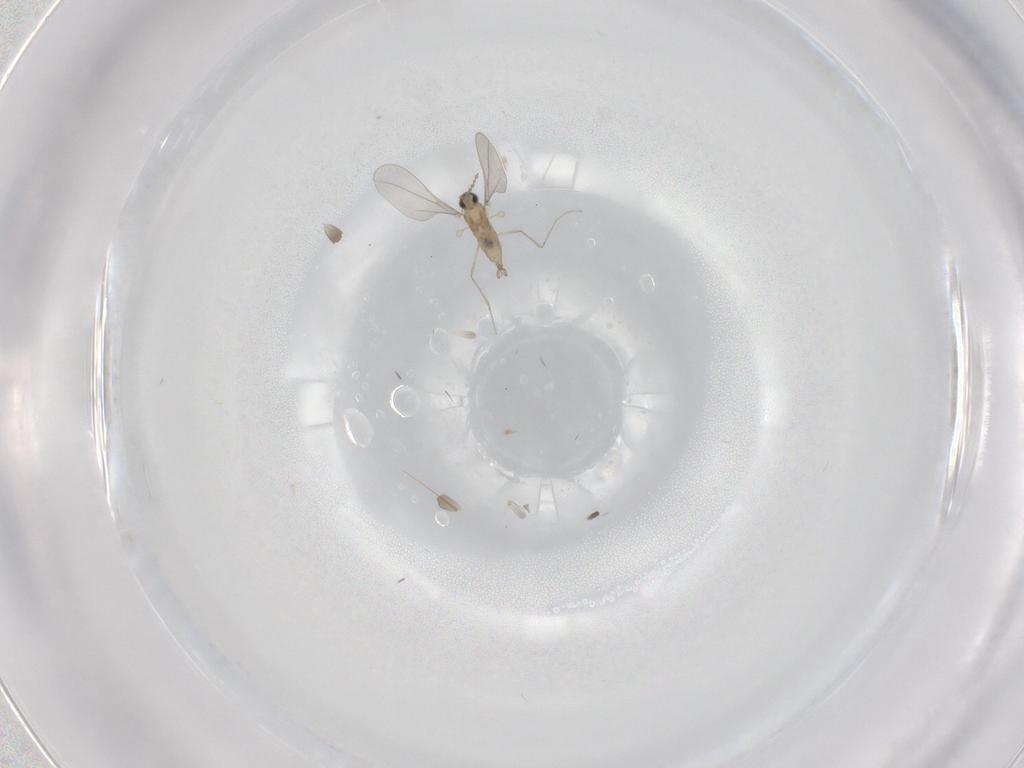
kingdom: Animalia
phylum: Arthropoda
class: Insecta
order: Diptera
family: Cecidomyiidae
